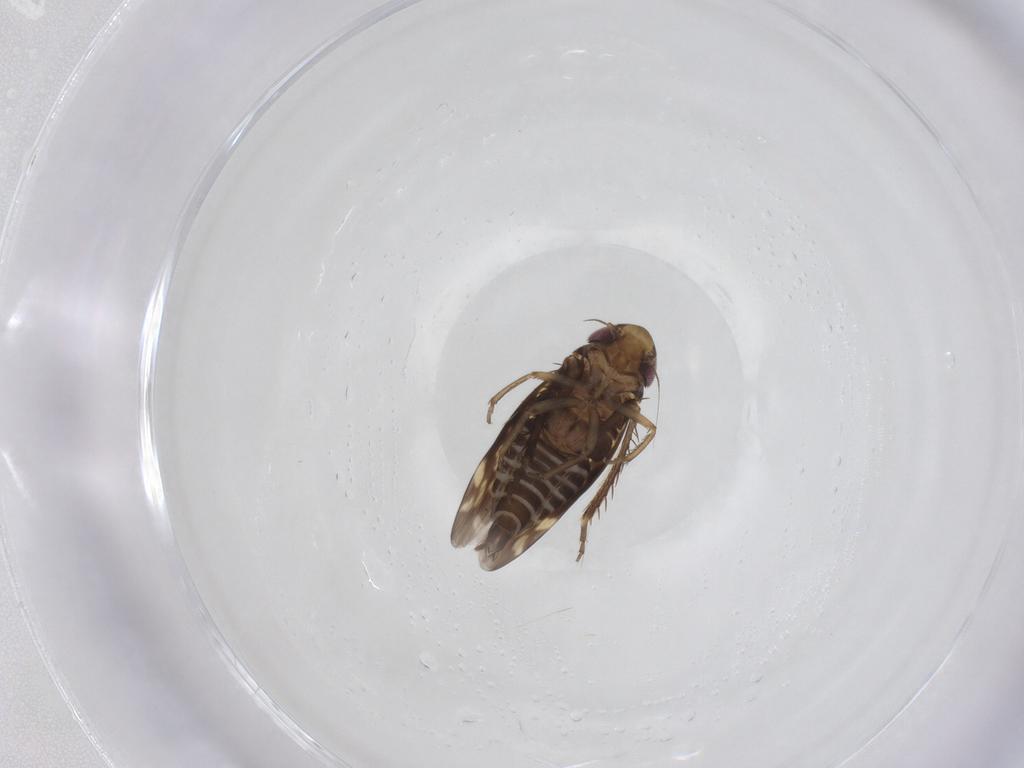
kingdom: Animalia
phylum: Arthropoda
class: Insecta
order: Hemiptera
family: Cicadellidae
